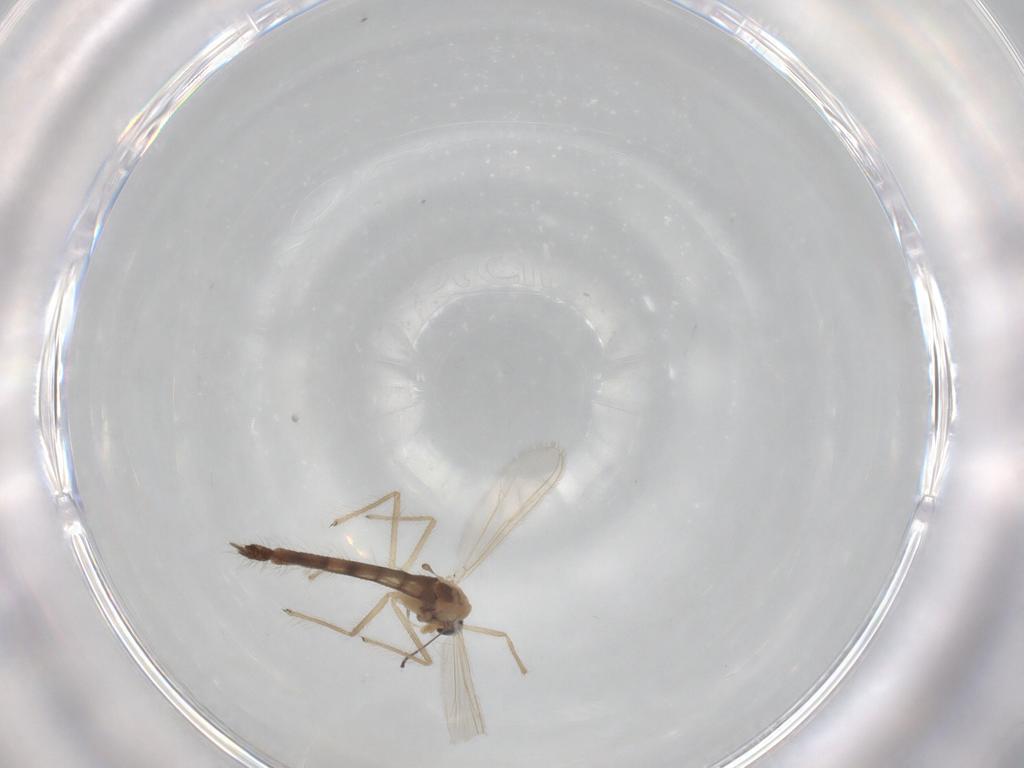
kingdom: Animalia
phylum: Arthropoda
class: Insecta
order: Diptera
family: Chironomidae
